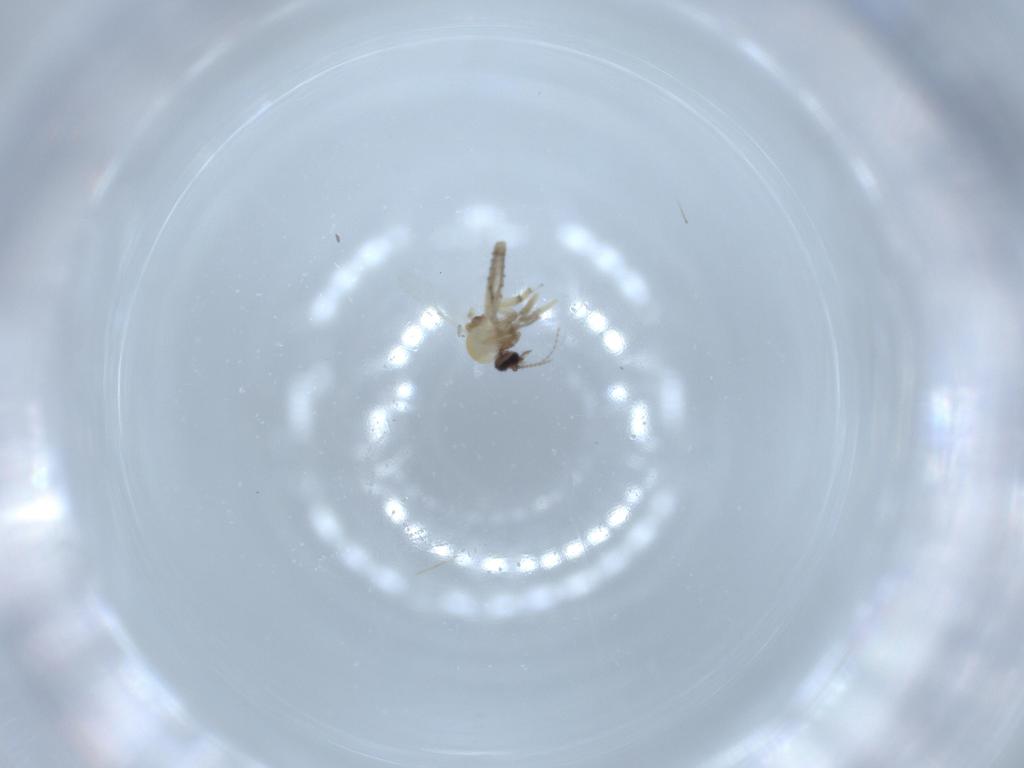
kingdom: Animalia
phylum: Arthropoda
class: Insecta
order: Diptera
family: Ceratopogonidae
